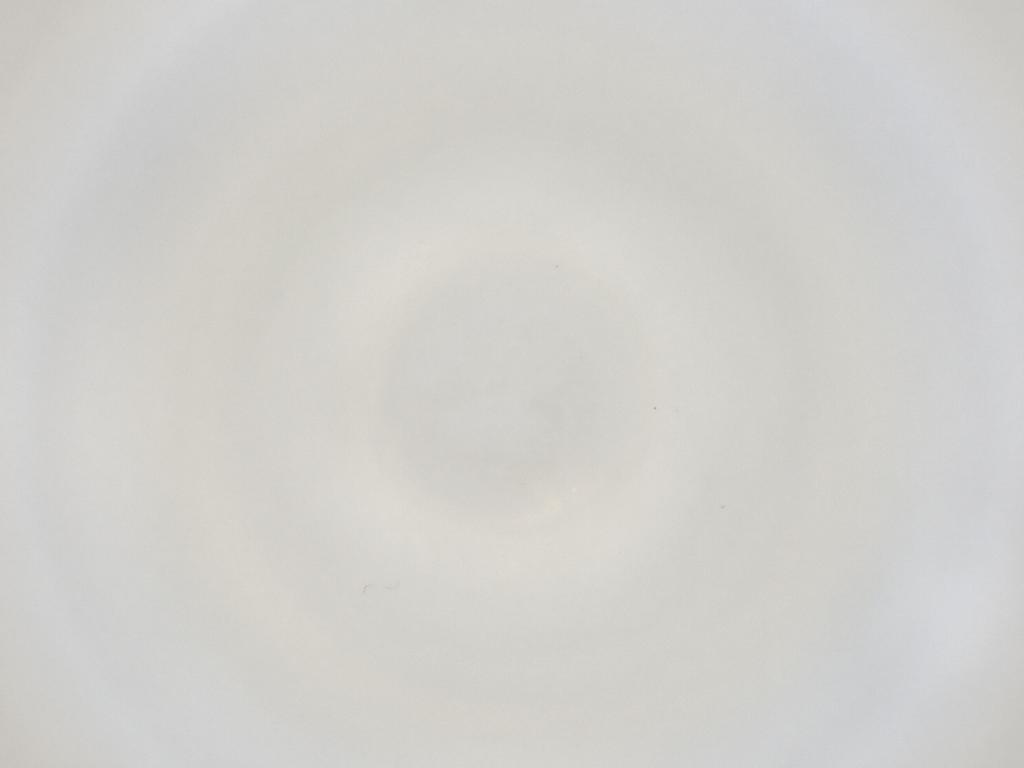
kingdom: Animalia
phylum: Arthropoda
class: Insecta
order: Diptera
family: Cecidomyiidae
